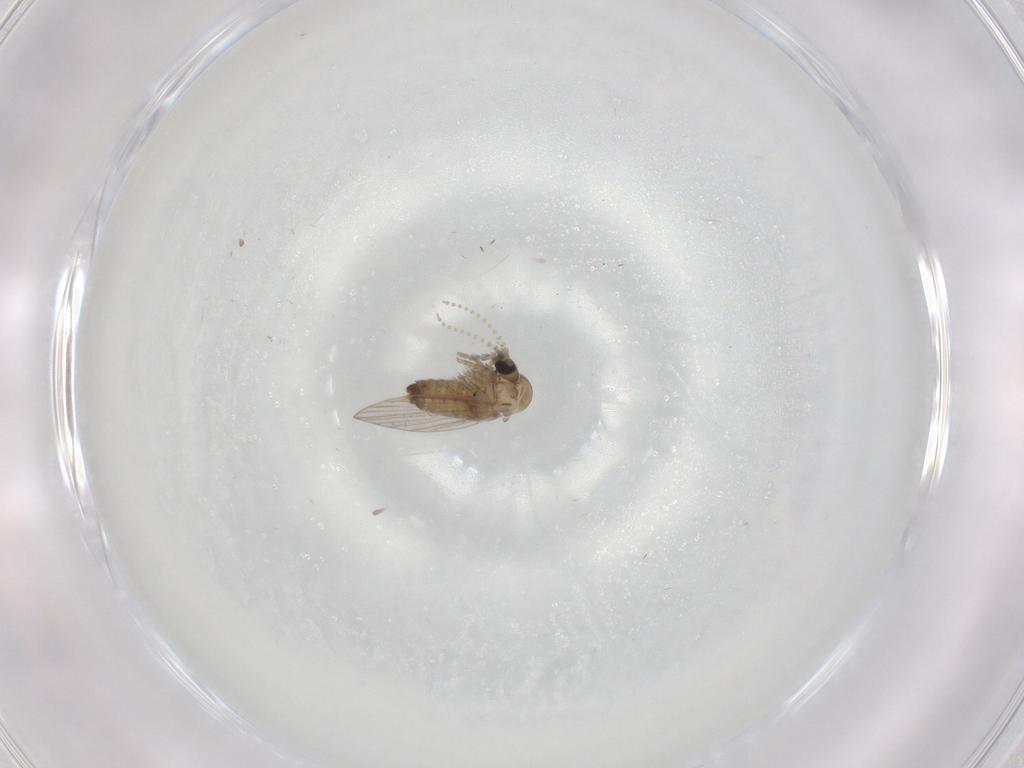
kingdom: Animalia
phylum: Arthropoda
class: Insecta
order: Diptera
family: Psychodidae
